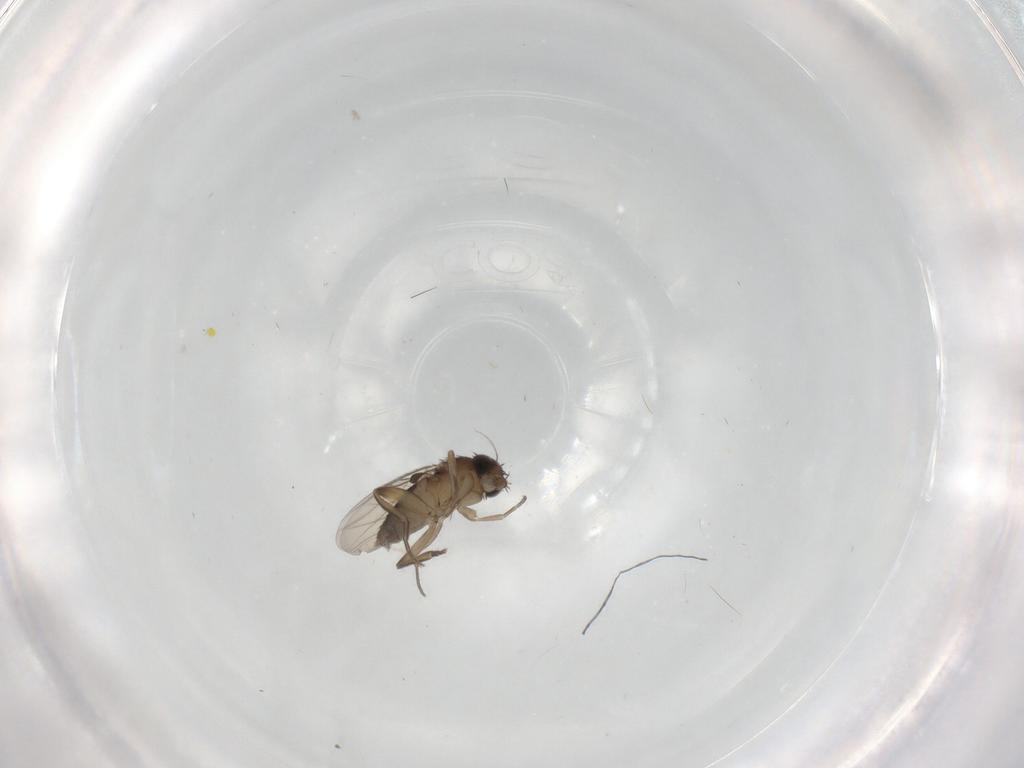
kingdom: Animalia
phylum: Arthropoda
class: Insecta
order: Diptera
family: Phoridae
